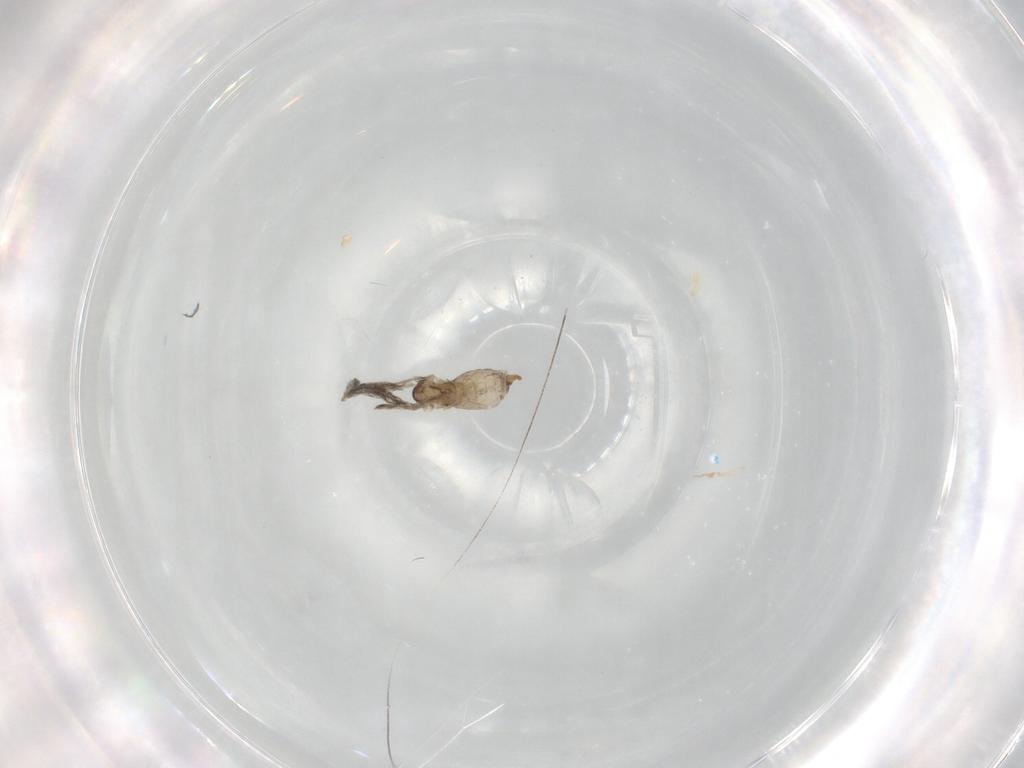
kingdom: Animalia
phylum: Arthropoda
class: Insecta
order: Diptera
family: Cecidomyiidae
